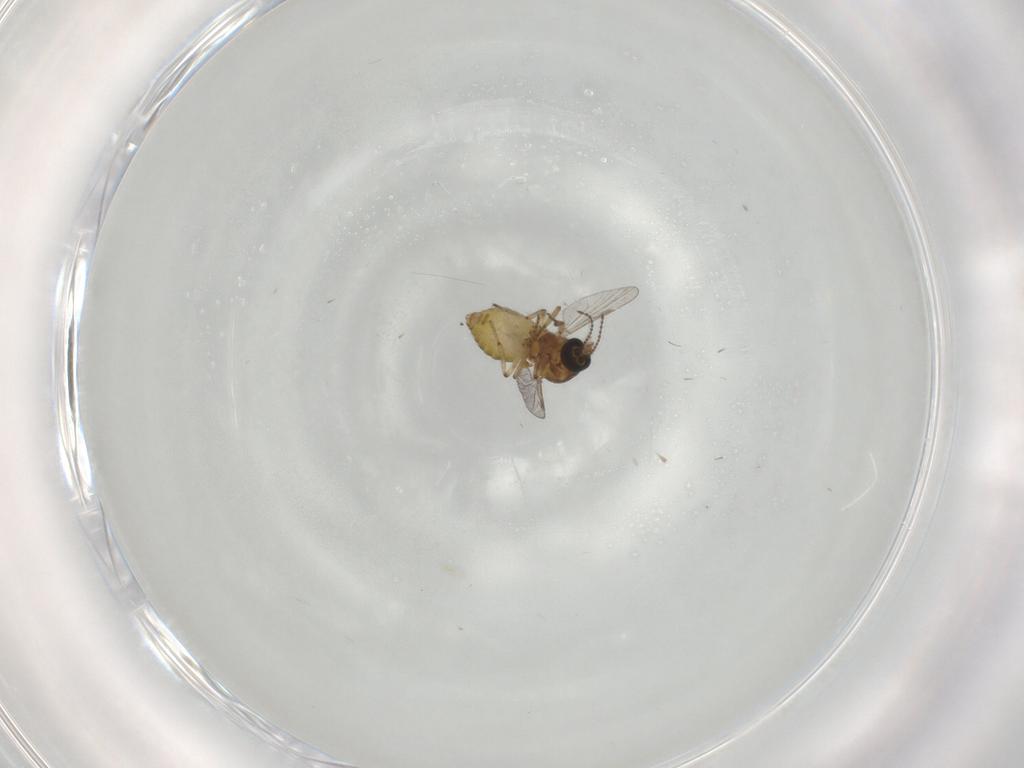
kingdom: Animalia
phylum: Arthropoda
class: Insecta
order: Diptera
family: Ceratopogonidae
